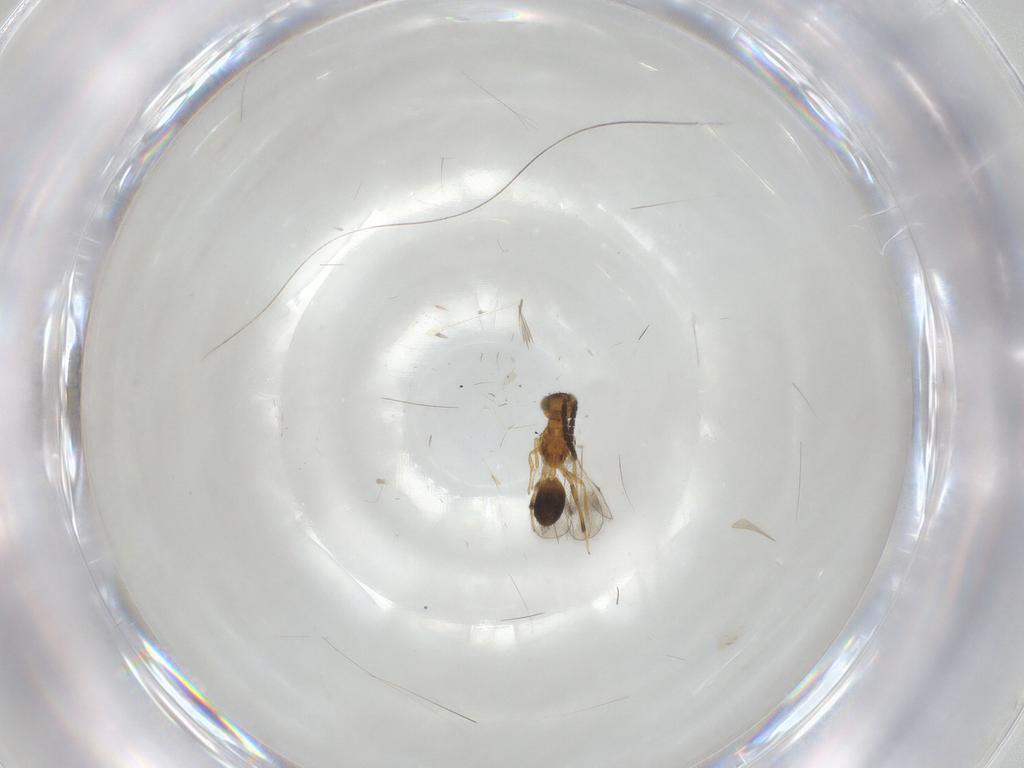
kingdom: Animalia
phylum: Arthropoda
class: Insecta
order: Hymenoptera
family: Pteromalidae
